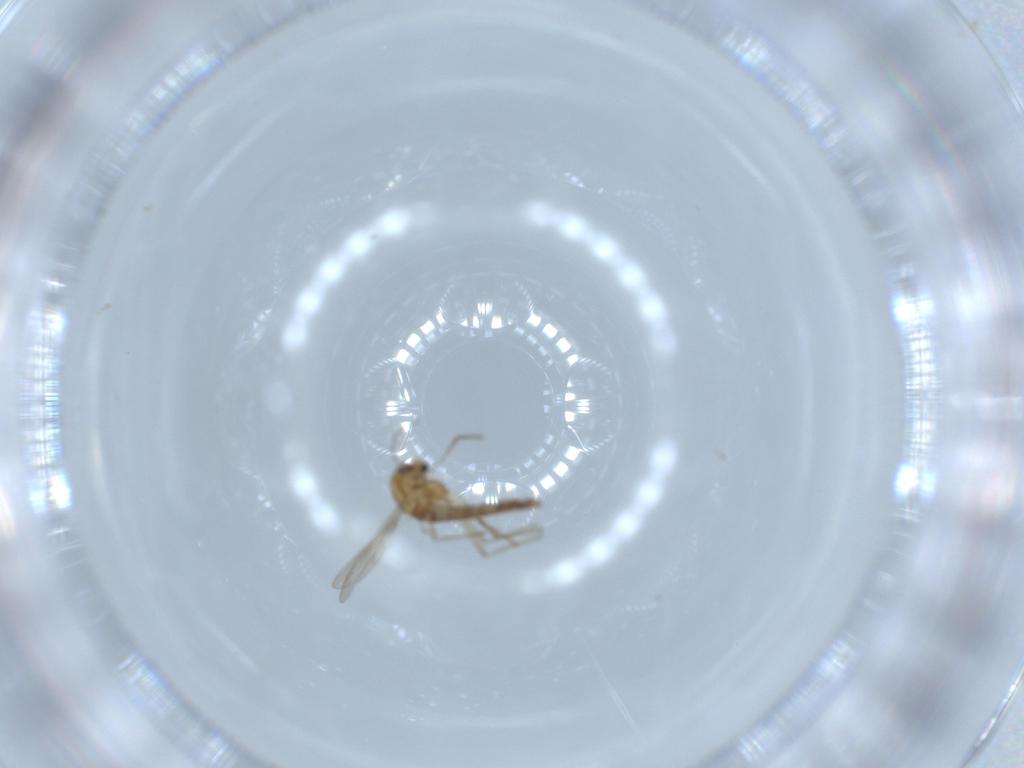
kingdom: Animalia
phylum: Arthropoda
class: Insecta
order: Diptera
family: Chironomidae
